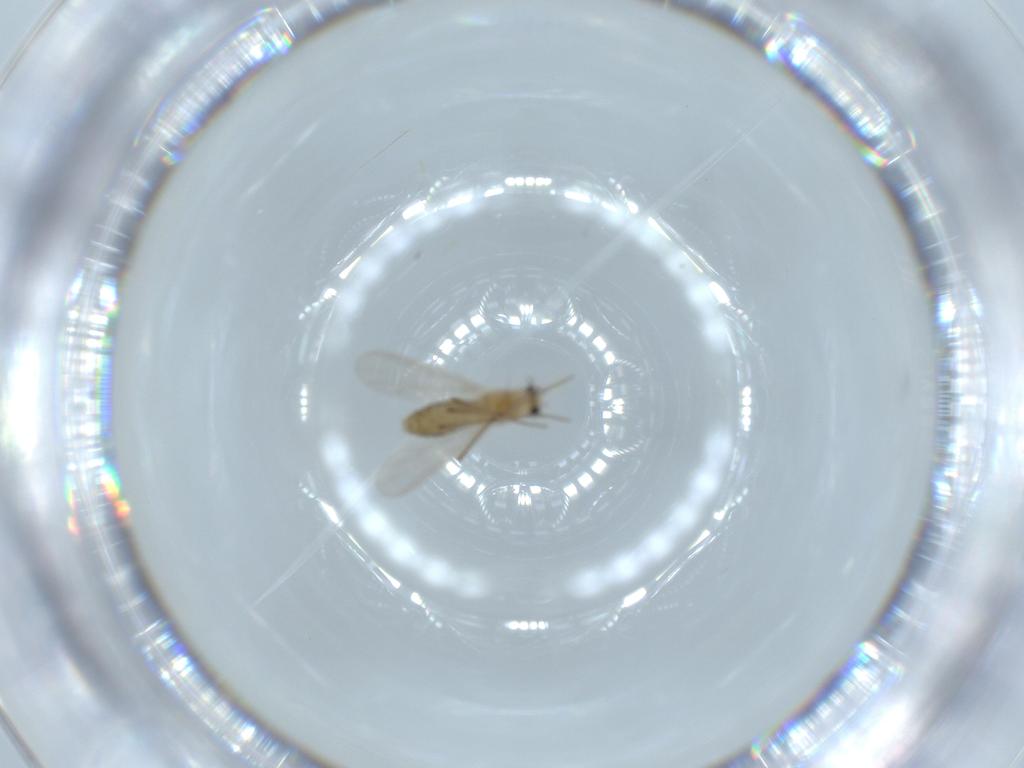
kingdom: Animalia
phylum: Arthropoda
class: Insecta
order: Diptera
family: Chironomidae
